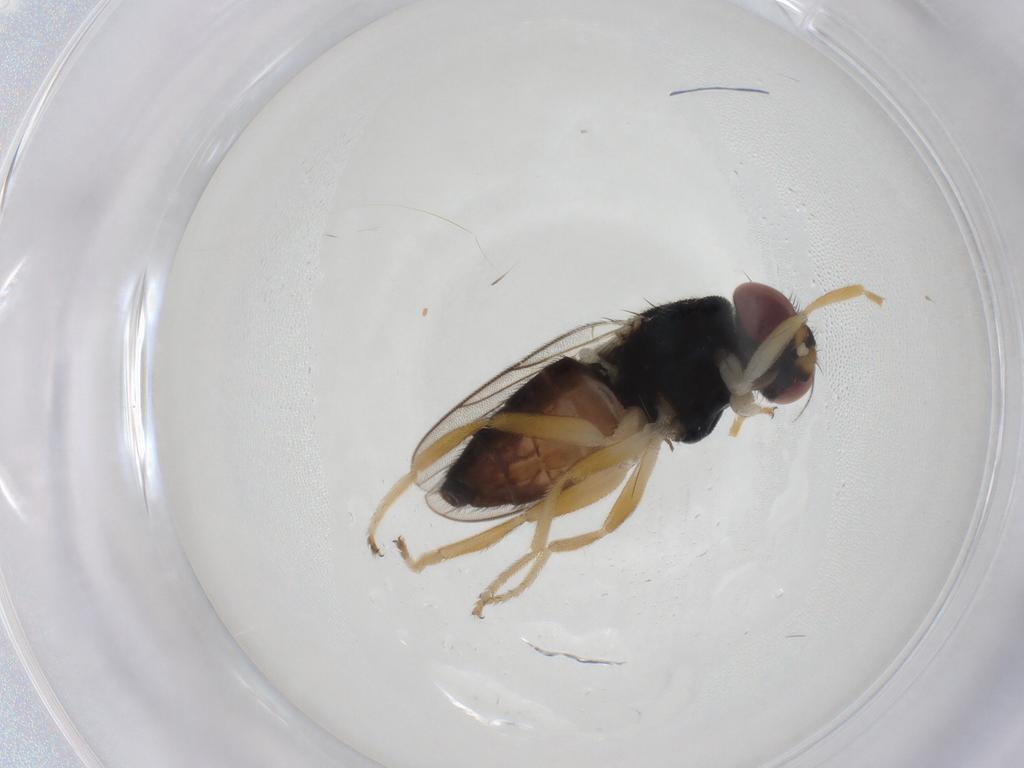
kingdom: Animalia
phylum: Arthropoda
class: Insecta
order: Diptera
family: Chloropidae
